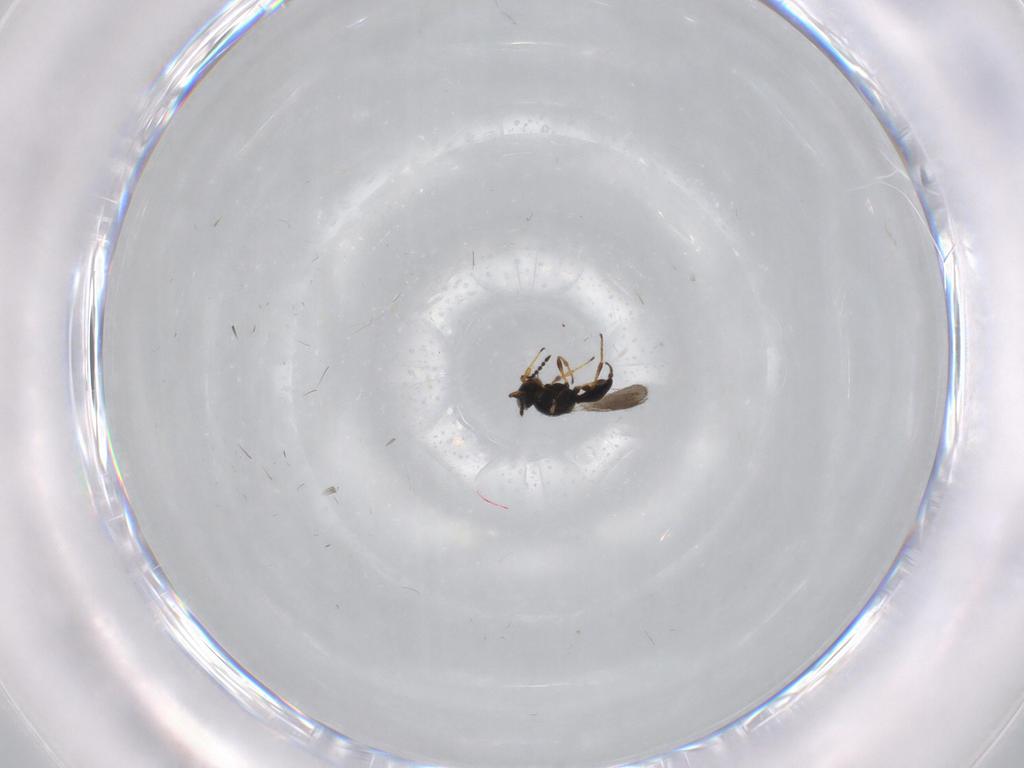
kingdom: Animalia
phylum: Arthropoda
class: Insecta
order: Hymenoptera
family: Platygastridae
